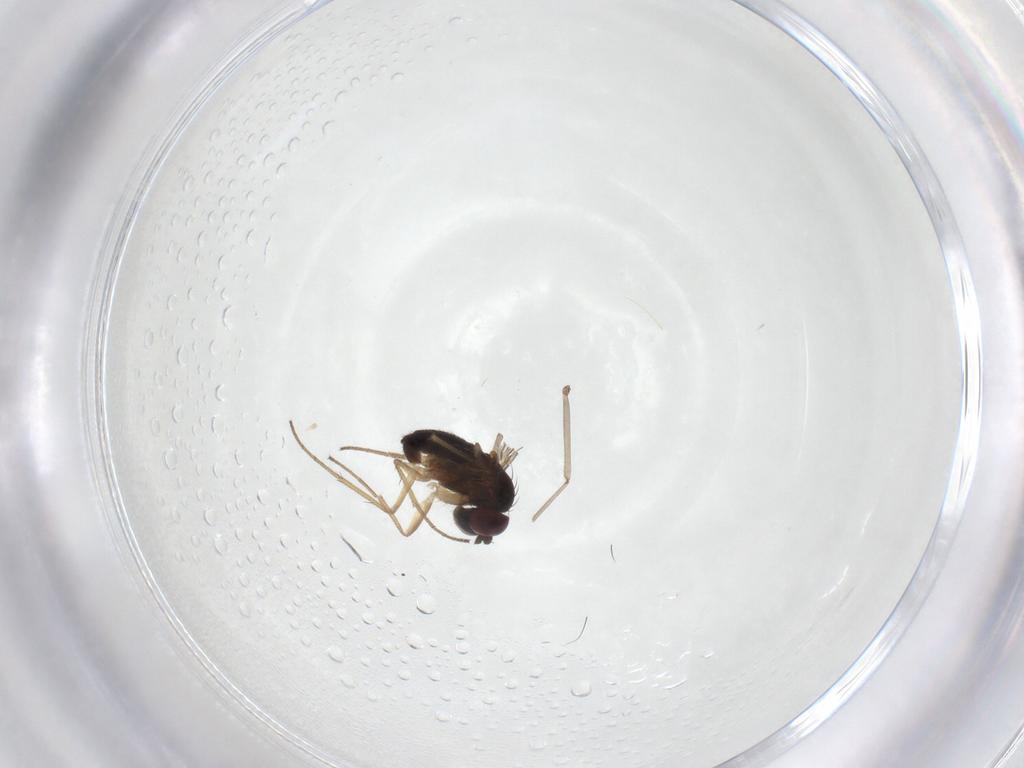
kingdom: Animalia
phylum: Arthropoda
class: Insecta
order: Diptera
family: Dolichopodidae
